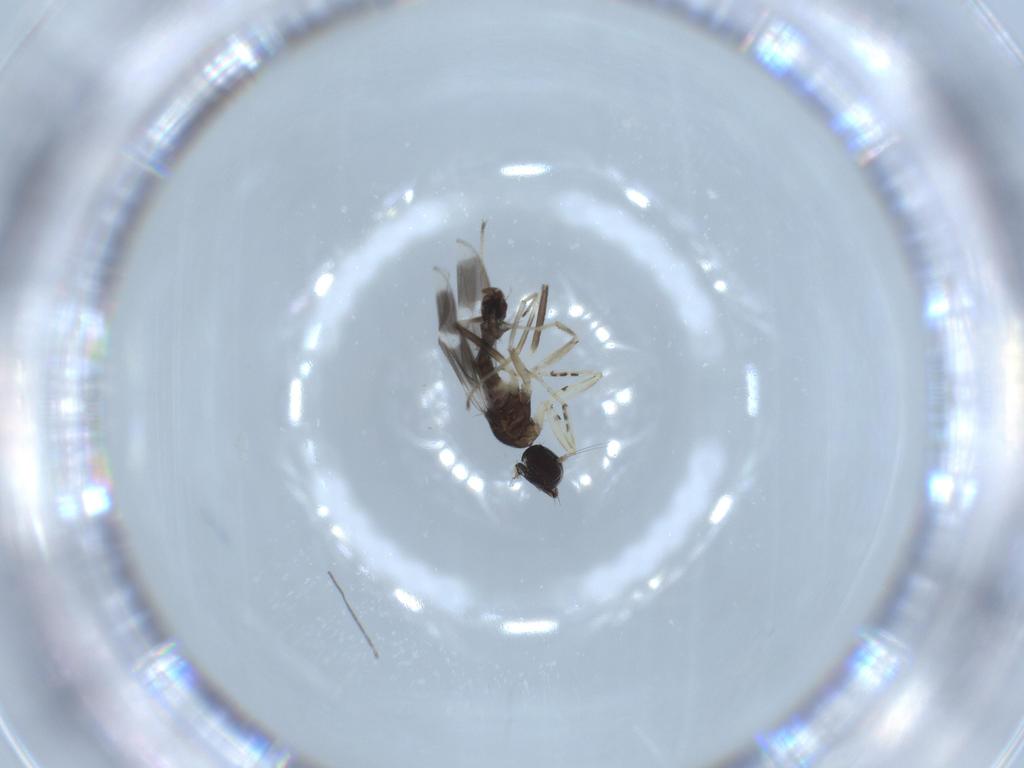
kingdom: Animalia
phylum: Arthropoda
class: Insecta
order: Diptera
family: Hybotidae
